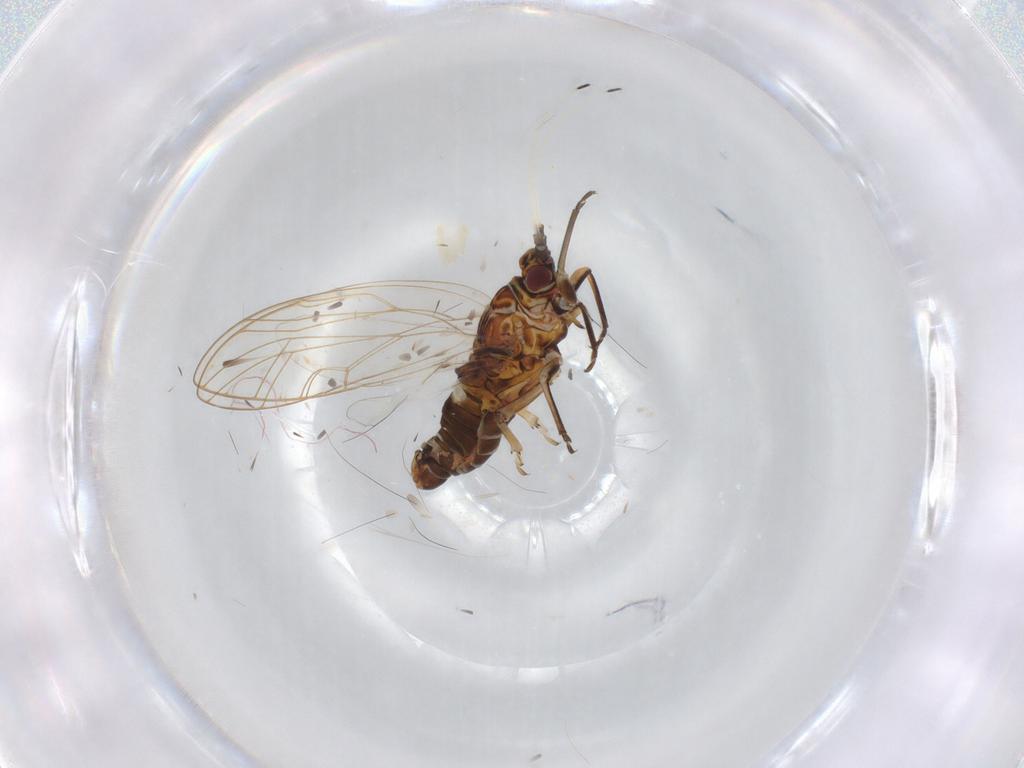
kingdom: Animalia
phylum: Arthropoda
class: Insecta
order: Hemiptera
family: Psylloidea_incertae_sedis
